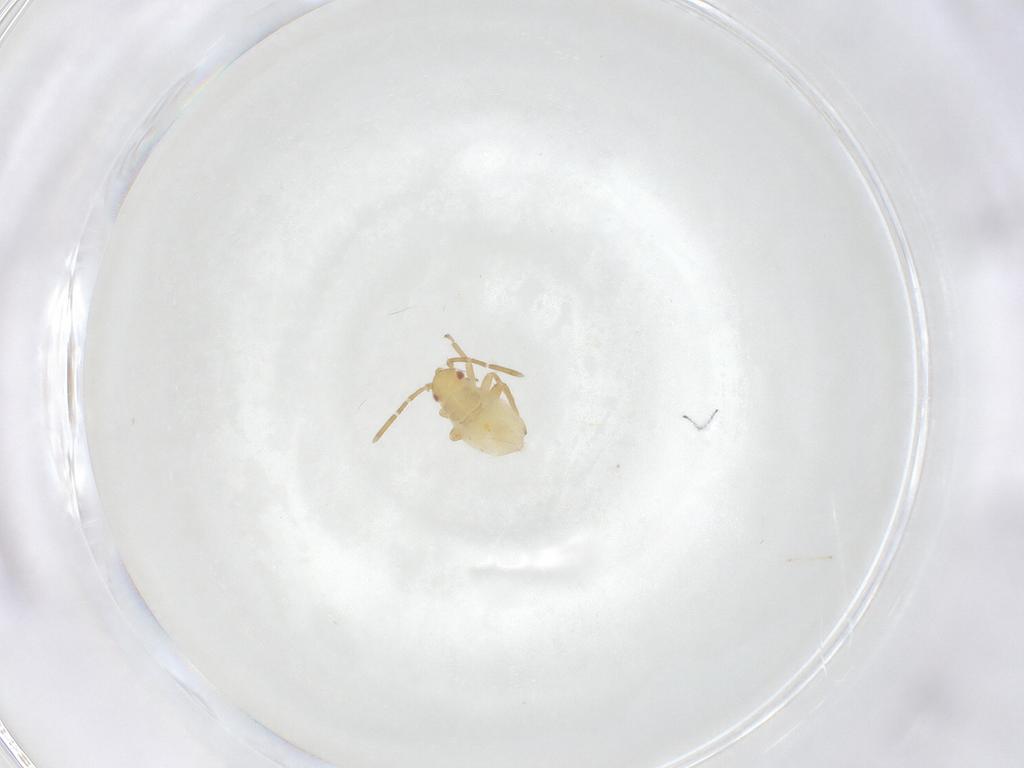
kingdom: Animalia
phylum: Arthropoda
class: Insecta
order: Hemiptera
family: Miridae
